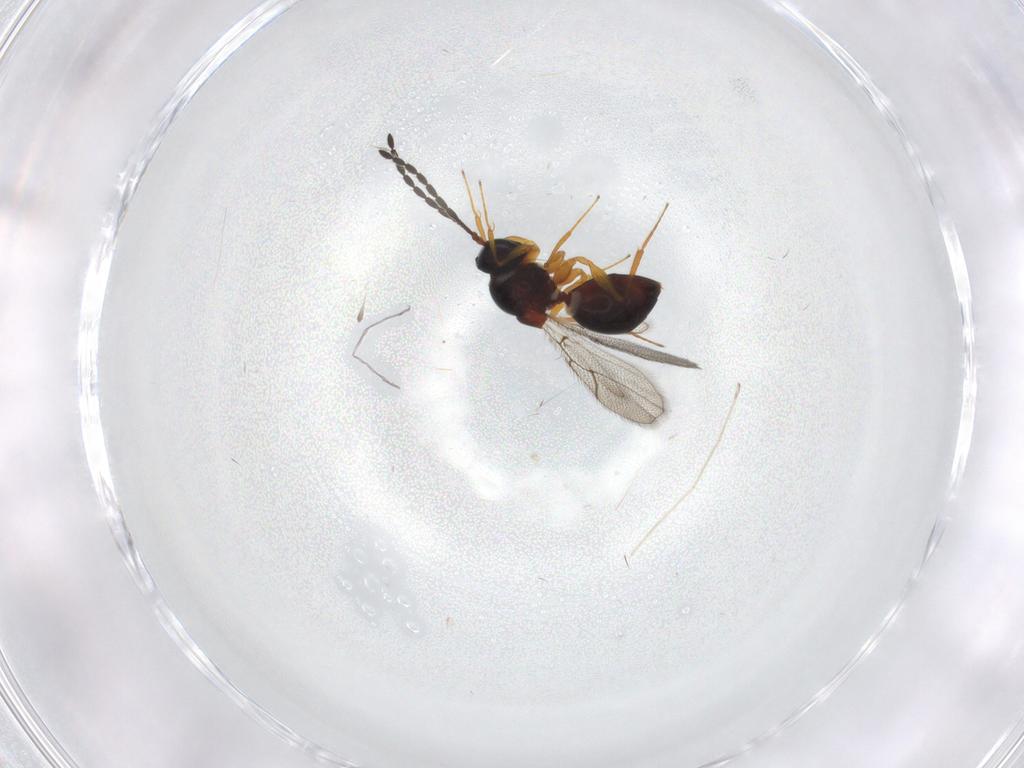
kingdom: Animalia
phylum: Arthropoda
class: Insecta
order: Hymenoptera
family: Figitidae
